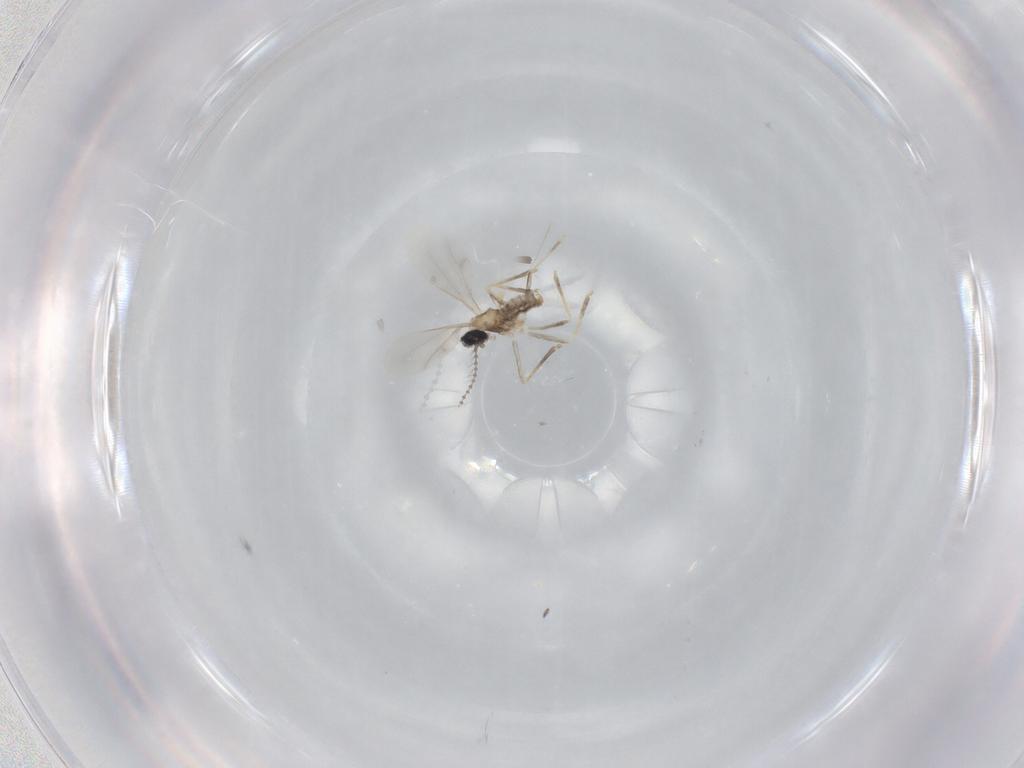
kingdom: Animalia
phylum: Arthropoda
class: Insecta
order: Diptera
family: Cecidomyiidae
